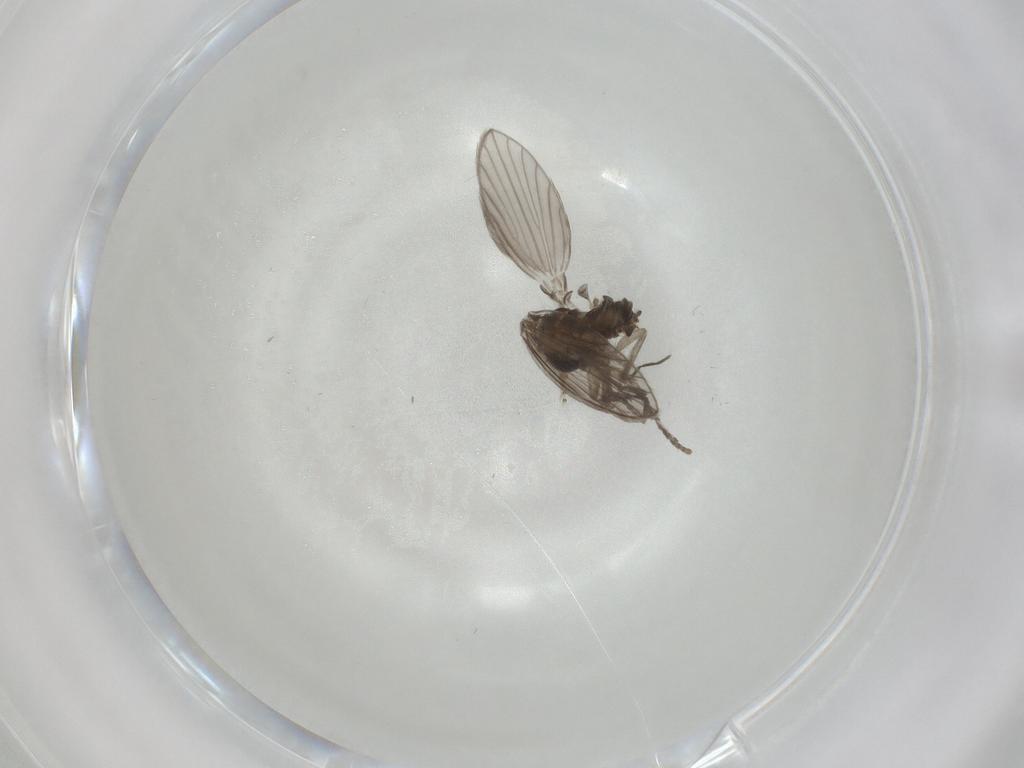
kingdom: Animalia
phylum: Arthropoda
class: Insecta
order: Diptera
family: Psychodidae
